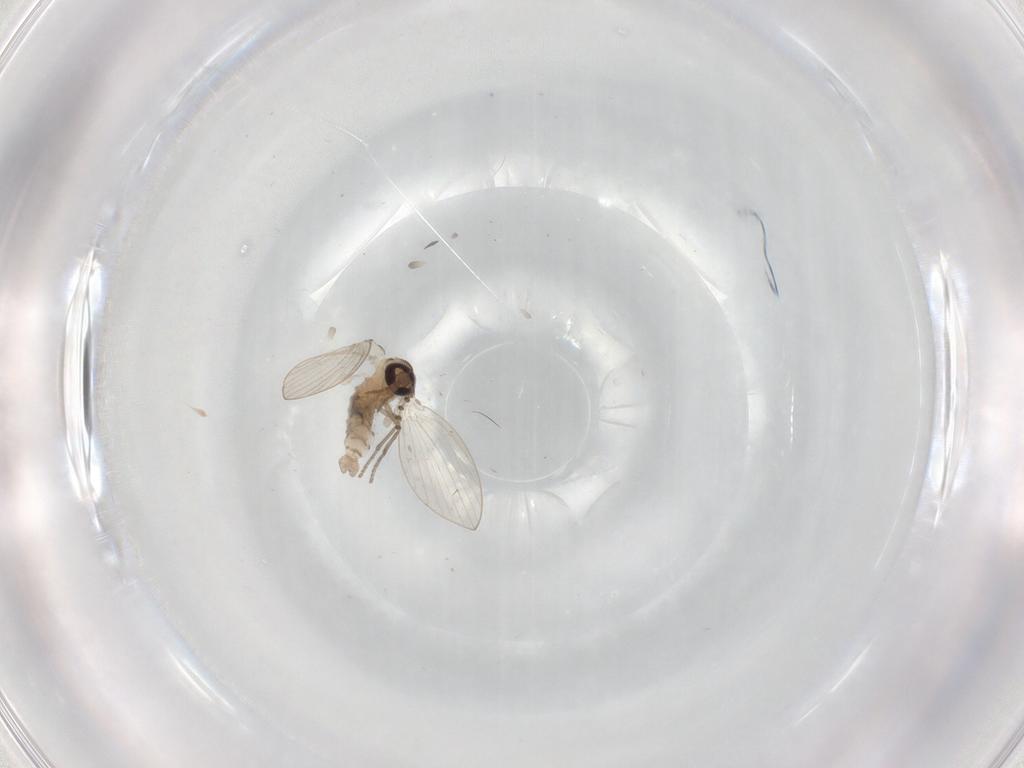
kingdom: Animalia
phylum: Arthropoda
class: Insecta
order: Diptera
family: Psychodidae
